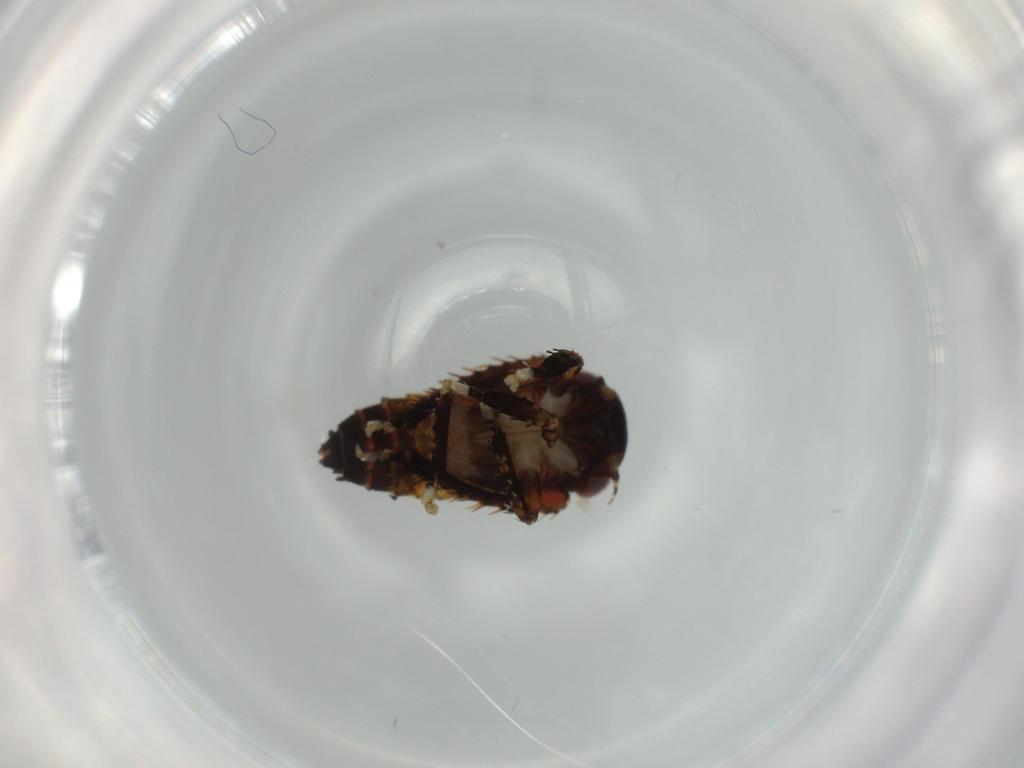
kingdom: Animalia
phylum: Arthropoda
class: Insecta
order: Hemiptera
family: Cicadellidae
